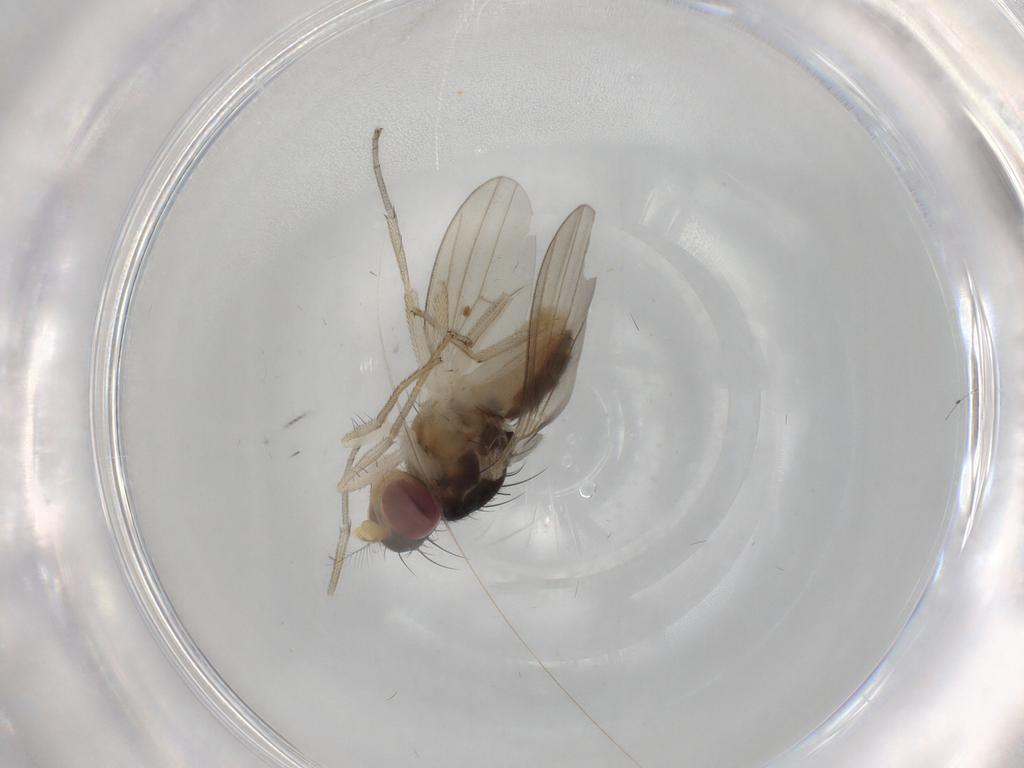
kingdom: Animalia
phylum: Arthropoda
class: Insecta
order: Diptera
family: Lauxaniidae
